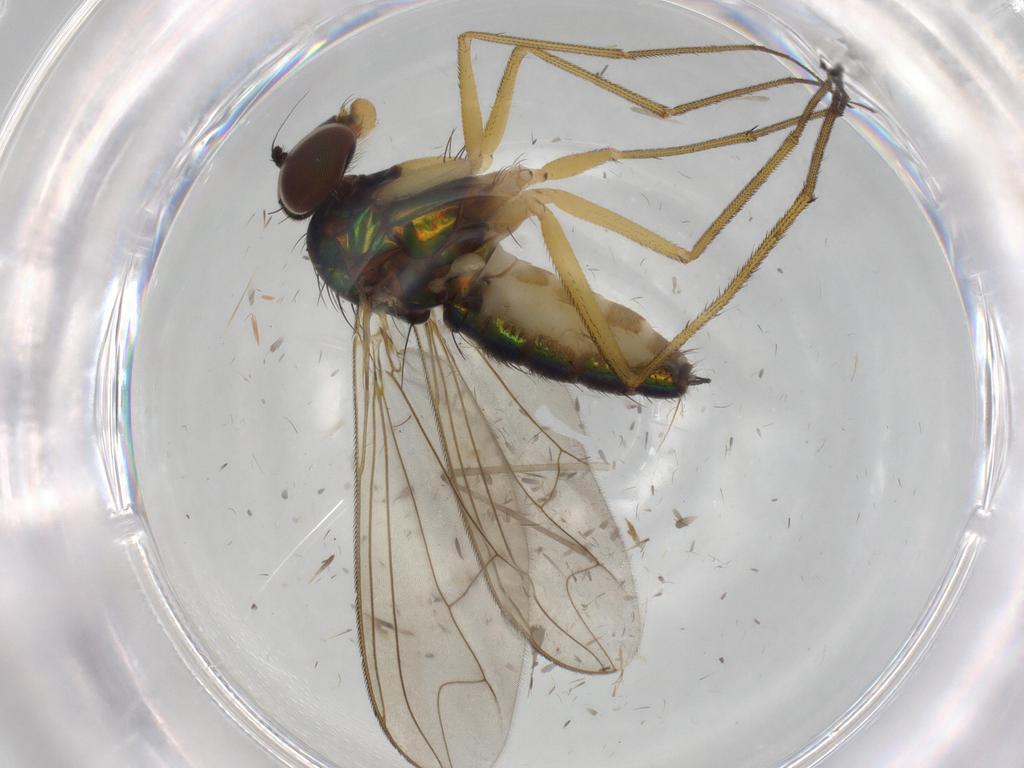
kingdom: Animalia
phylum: Arthropoda
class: Insecta
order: Diptera
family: Dolichopodidae
